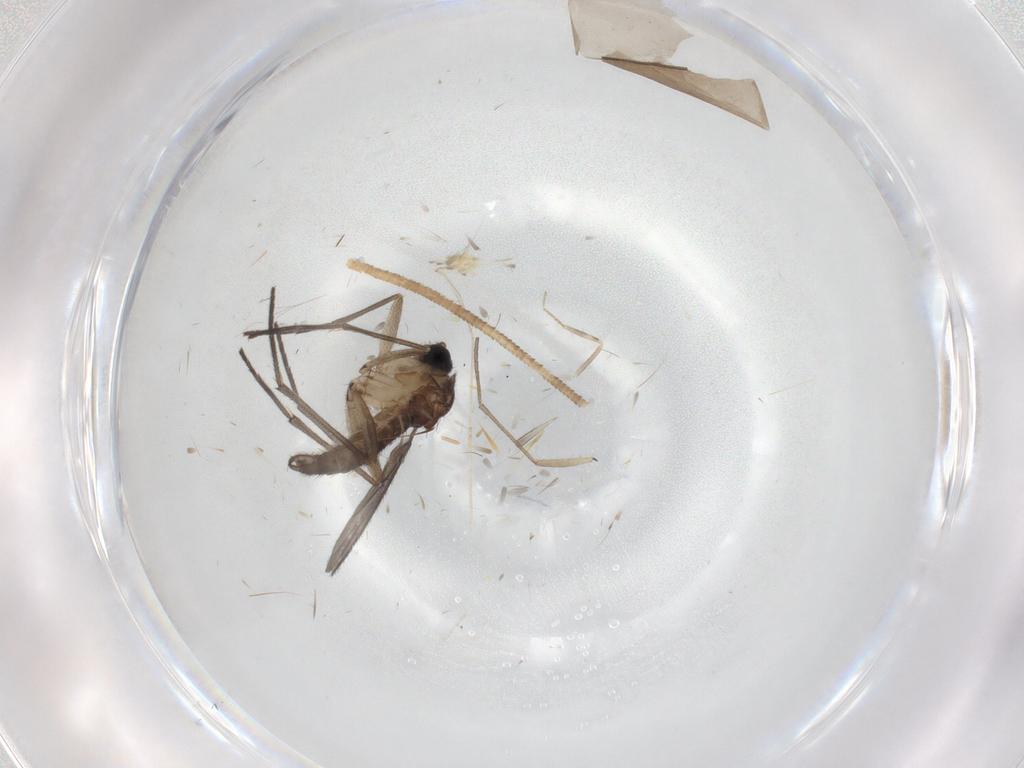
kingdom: Animalia
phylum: Arthropoda
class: Insecta
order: Diptera
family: Sciaridae
